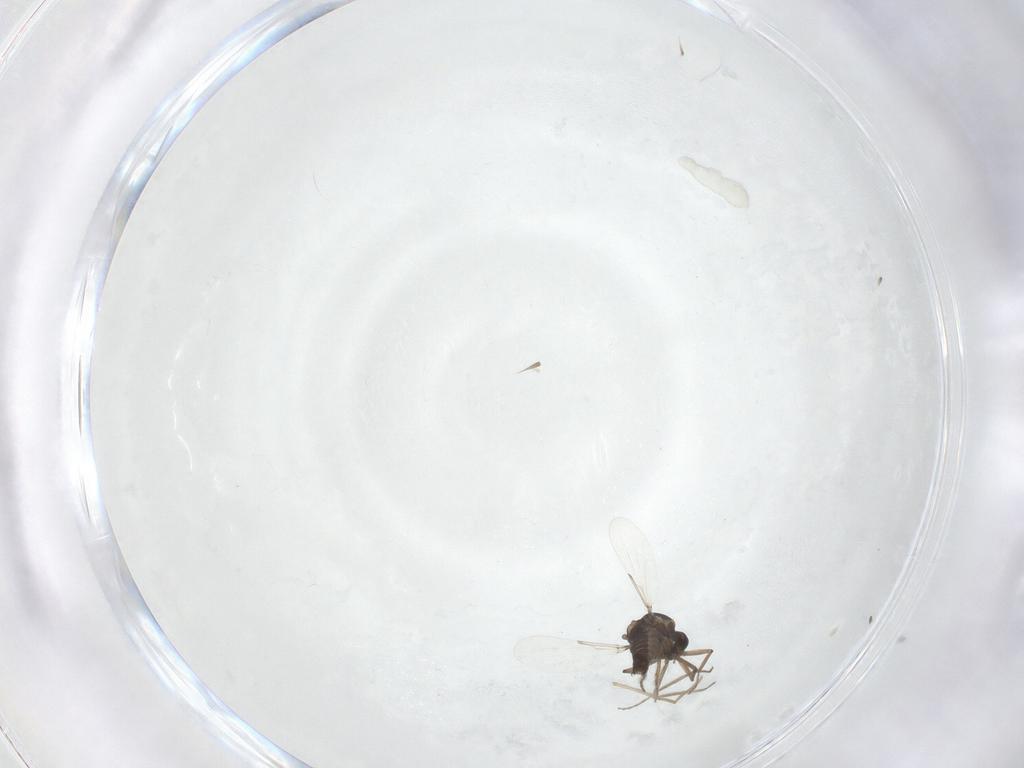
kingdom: Animalia
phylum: Arthropoda
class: Insecta
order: Diptera
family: Ceratopogonidae
